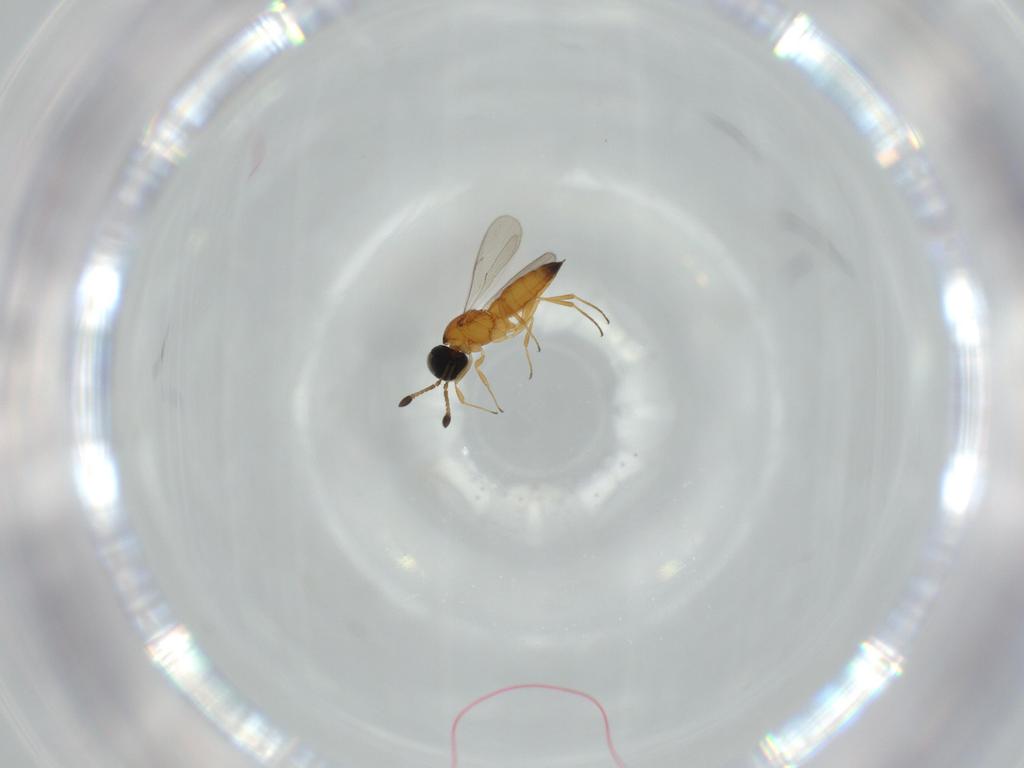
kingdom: Animalia
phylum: Arthropoda
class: Insecta
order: Hymenoptera
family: Scelionidae
